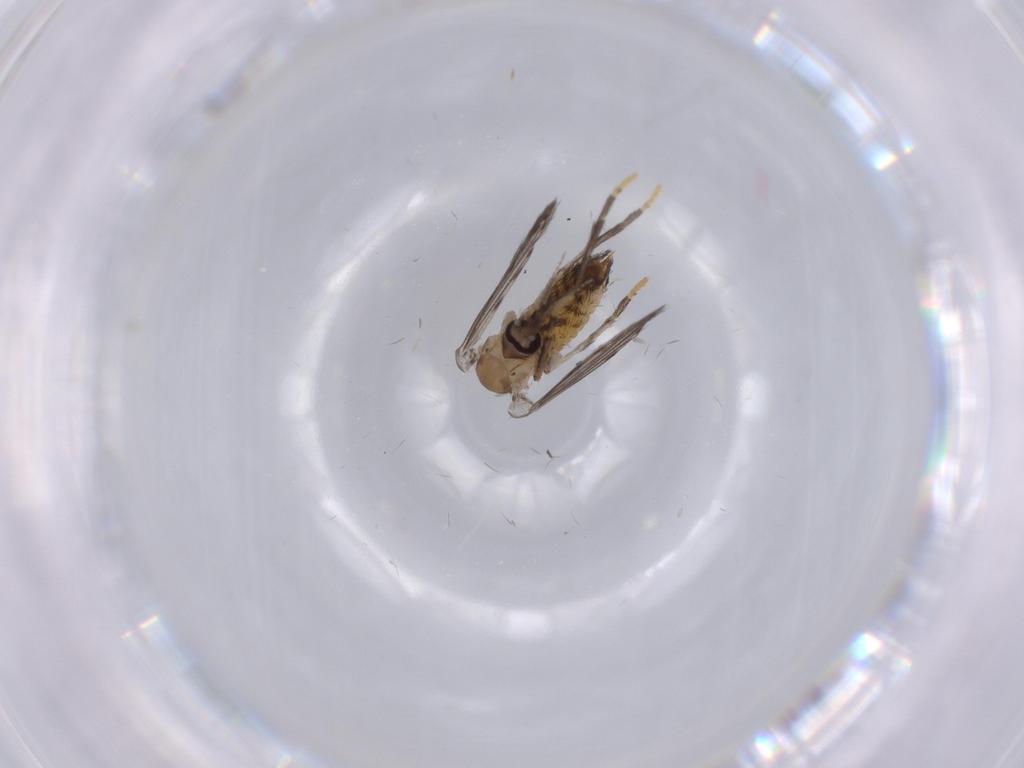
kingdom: Animalia
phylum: Arthropoda
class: Insecta
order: Diptera
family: Psychodidae
